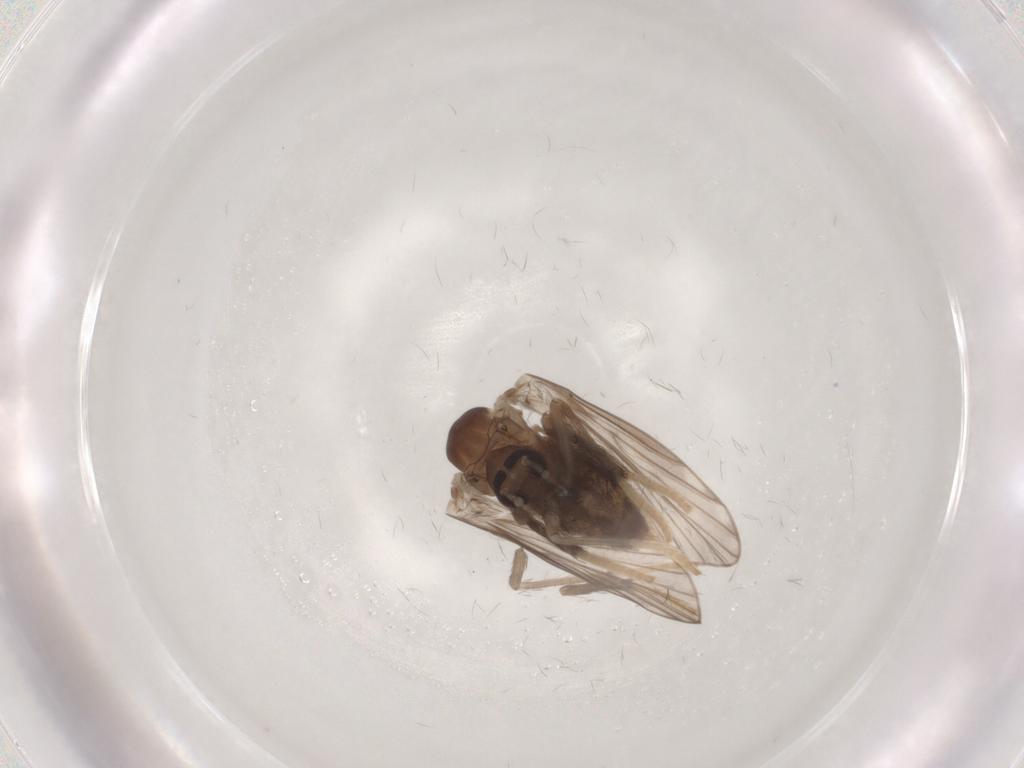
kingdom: Animalia
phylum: Arthropoda
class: Insecta
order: Diptera
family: Psychodidae
